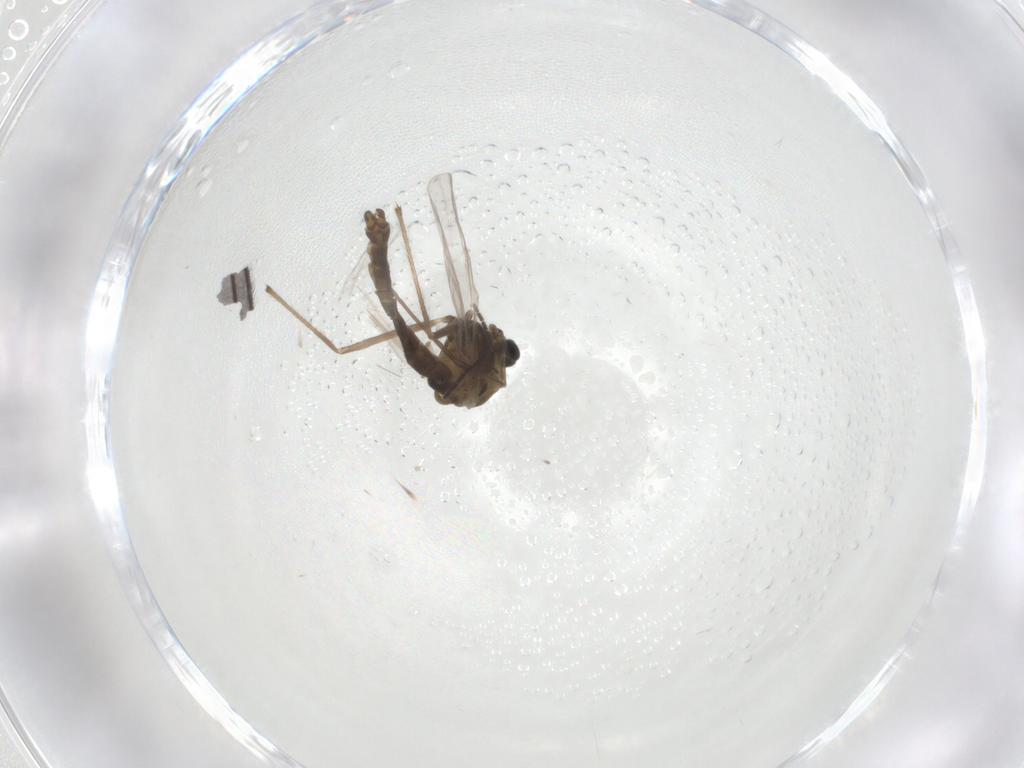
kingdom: Animalia
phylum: Arthropoda
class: Insecta
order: Diptera
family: Chironomidae
